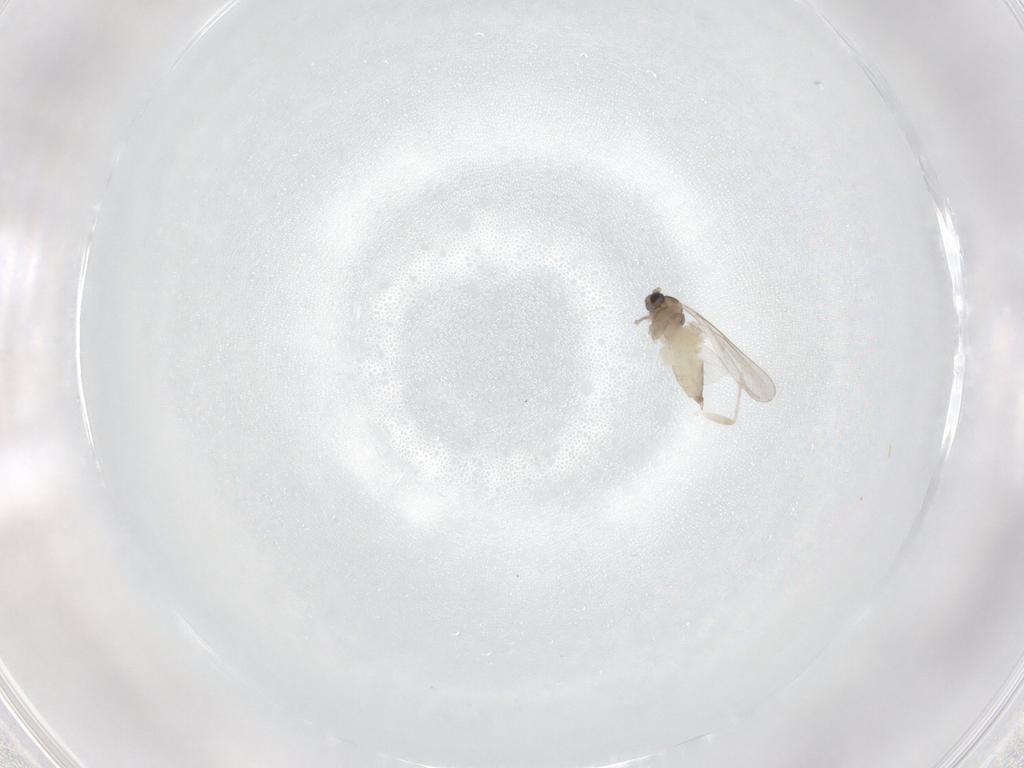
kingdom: Animalia
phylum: Arthropoda
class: Insecta
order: Diptera
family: Cecidomyiidae
